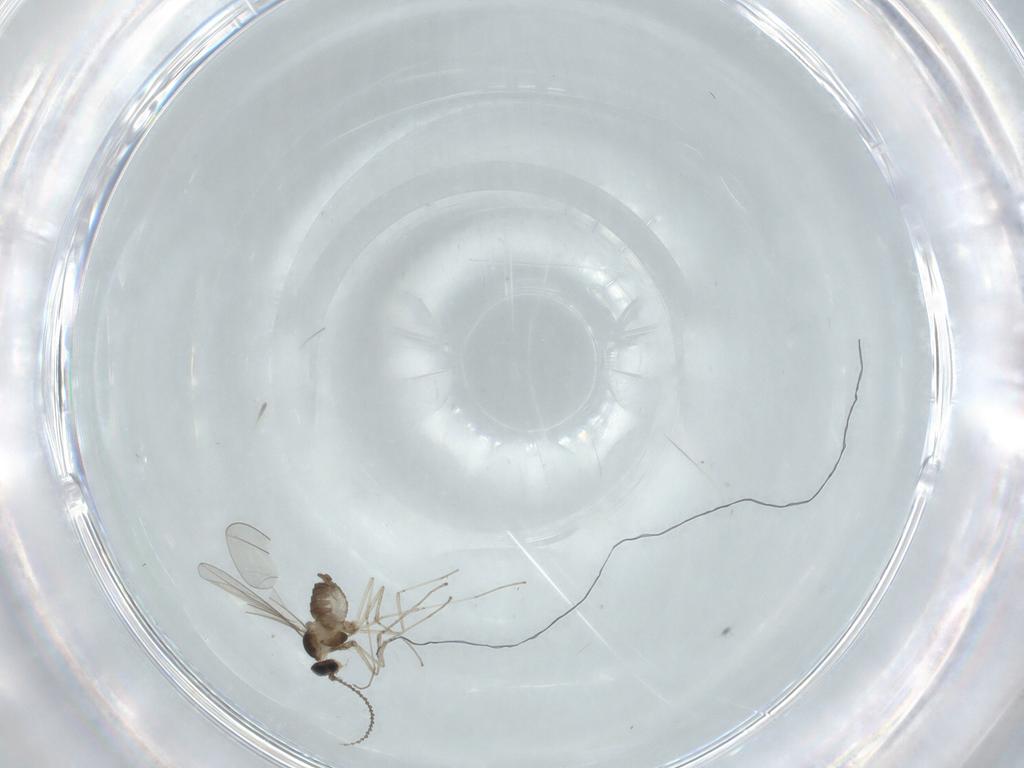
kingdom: Animalia
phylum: Arthropoda
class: Insecta
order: Diptera
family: Cecidomyiidae
